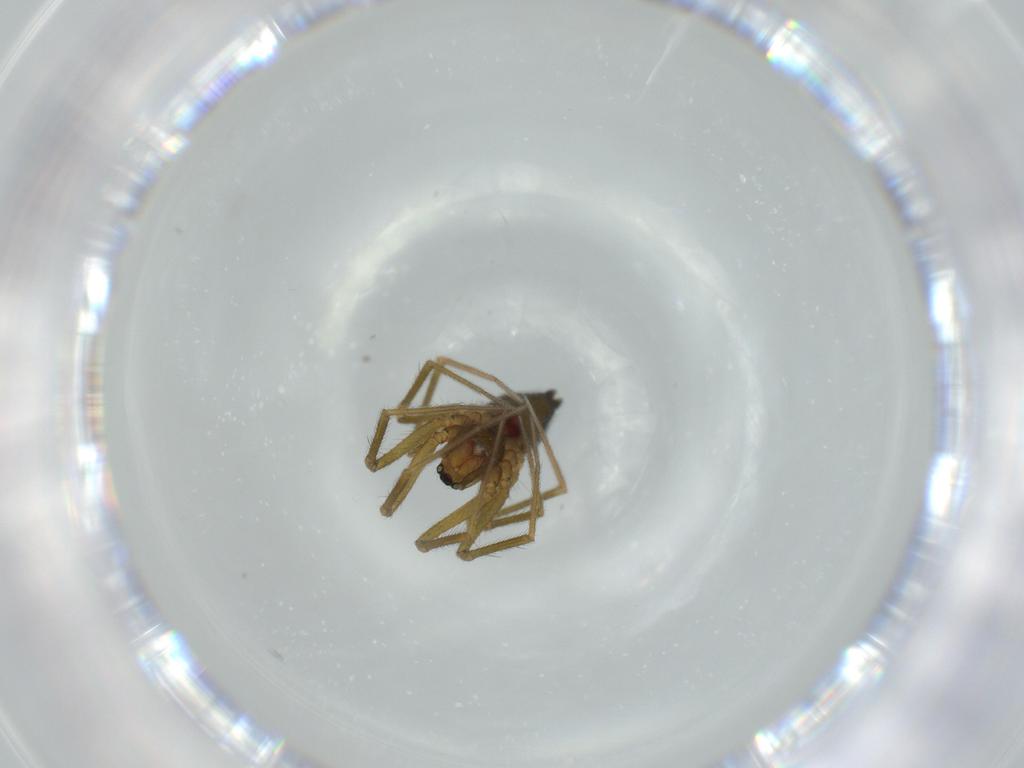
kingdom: Animalia
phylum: Arthropoda
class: Arachnida
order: Araneae
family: Linyphiidae
